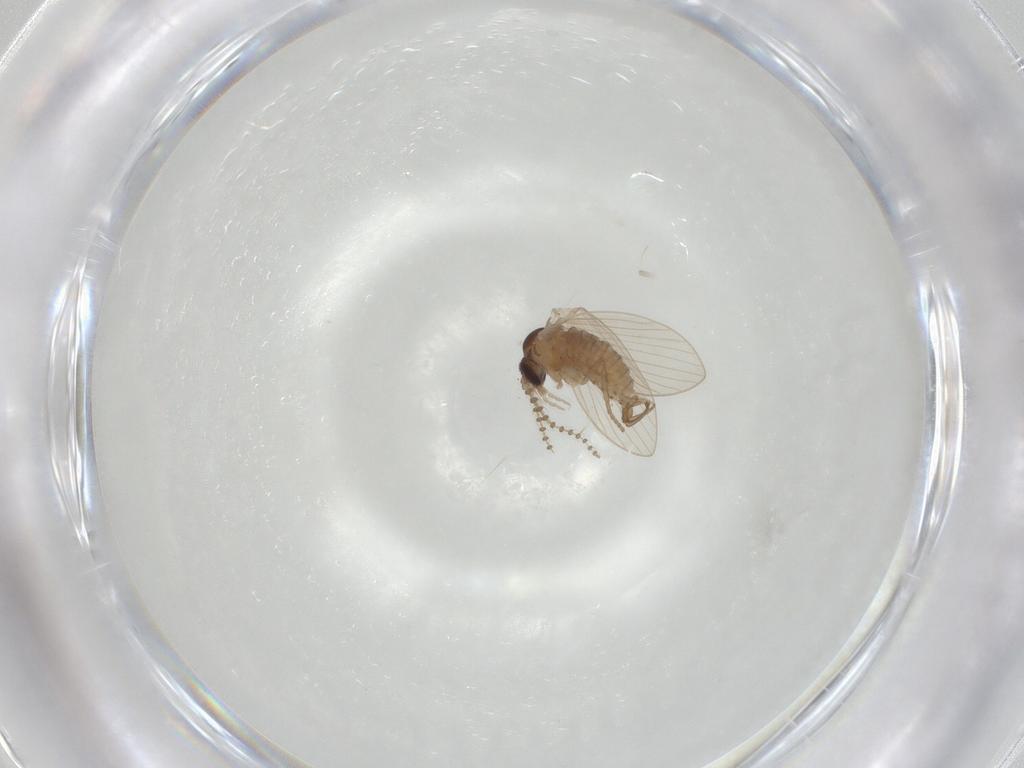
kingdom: Animalia
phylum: Arthropoda
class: Insecta
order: Diptera
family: Psychodidae
